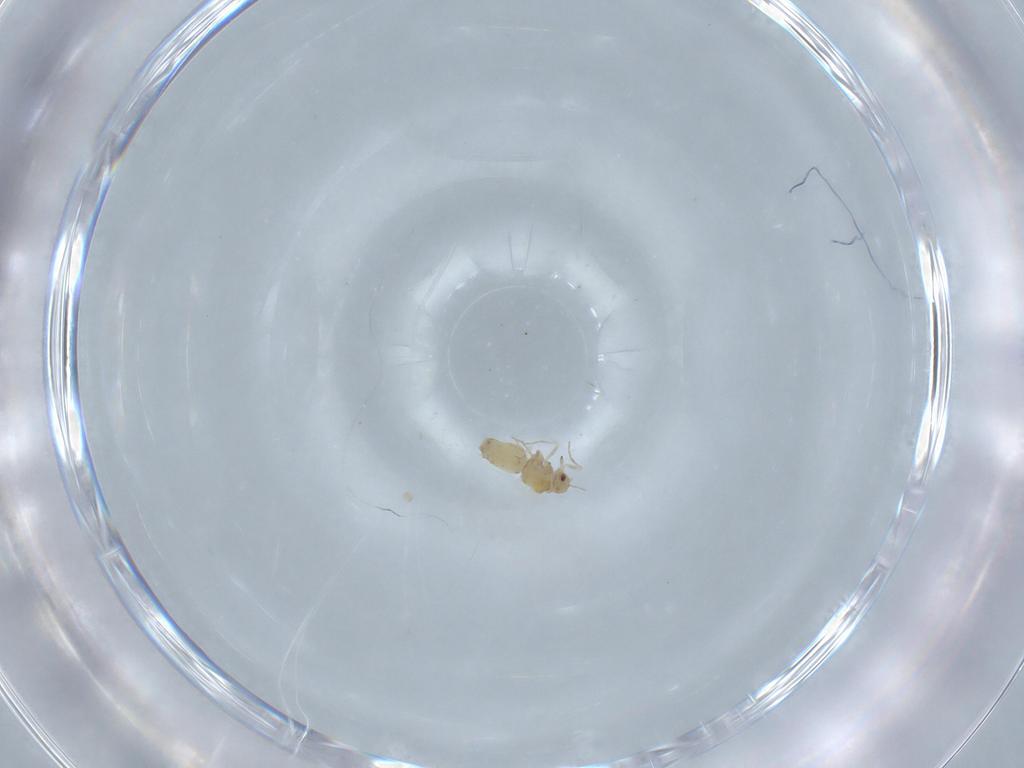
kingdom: Animalia
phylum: Arthropoda
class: Insecta
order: Hemiptera
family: Aleyrodidae
